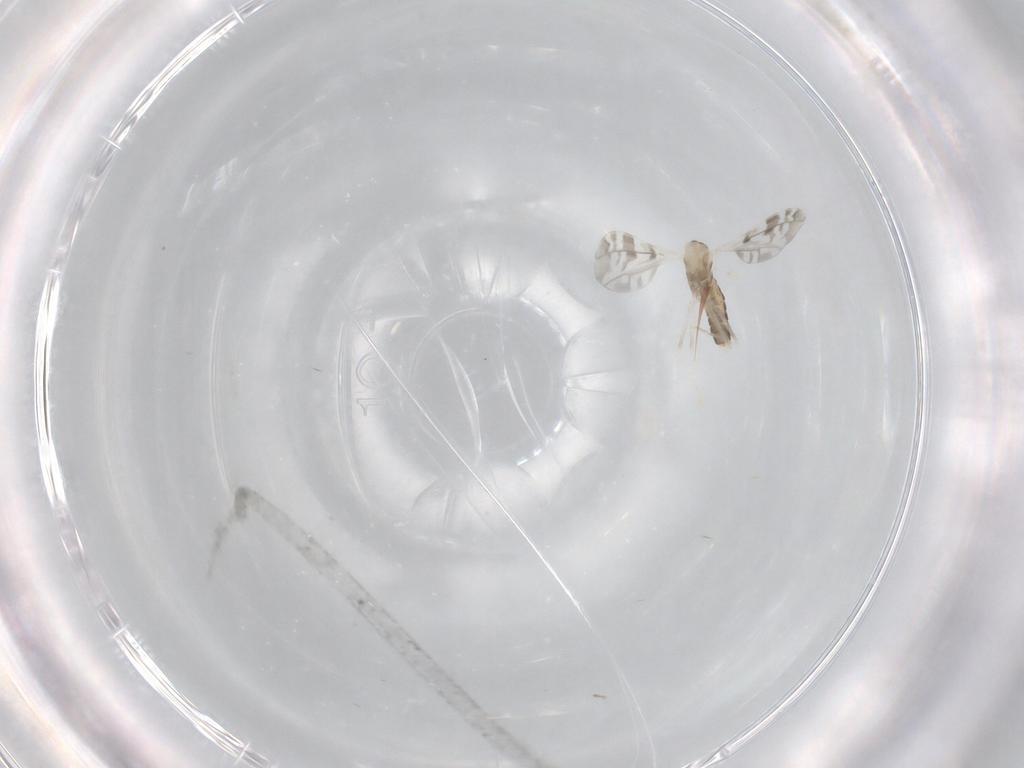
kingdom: Animalia
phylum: Arthropoda
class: Insecta
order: Diptera
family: Cecidomyiidae
